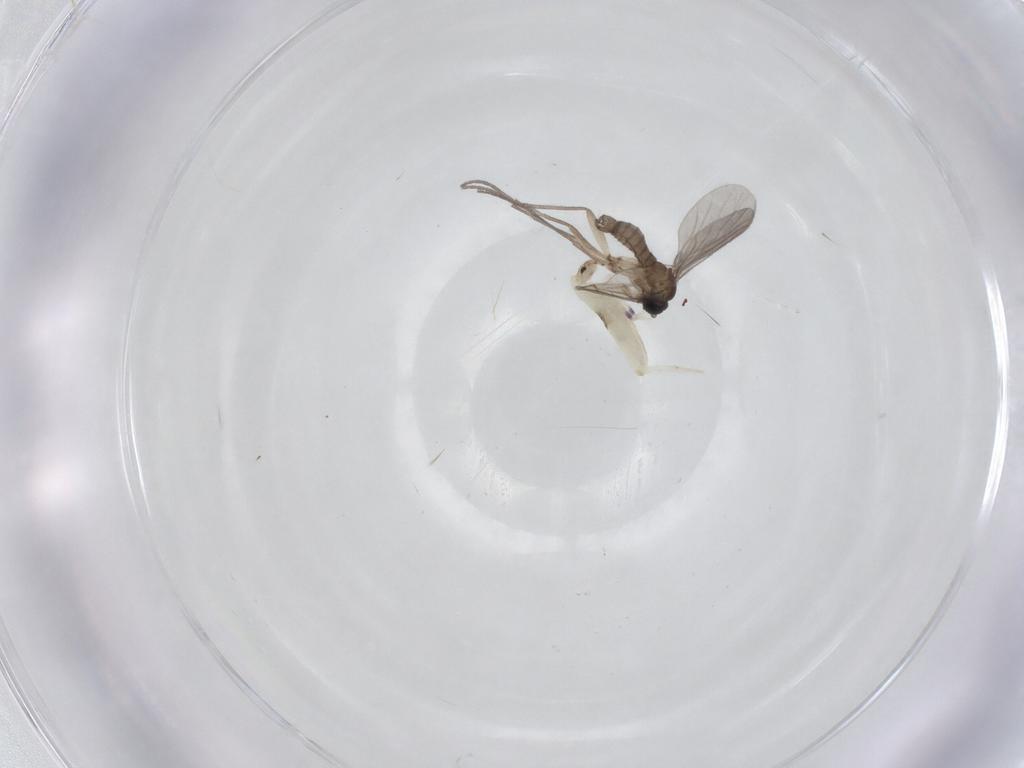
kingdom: Animalia
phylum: Arthropoda
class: Insecta
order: Diptera
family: Sciaridae
